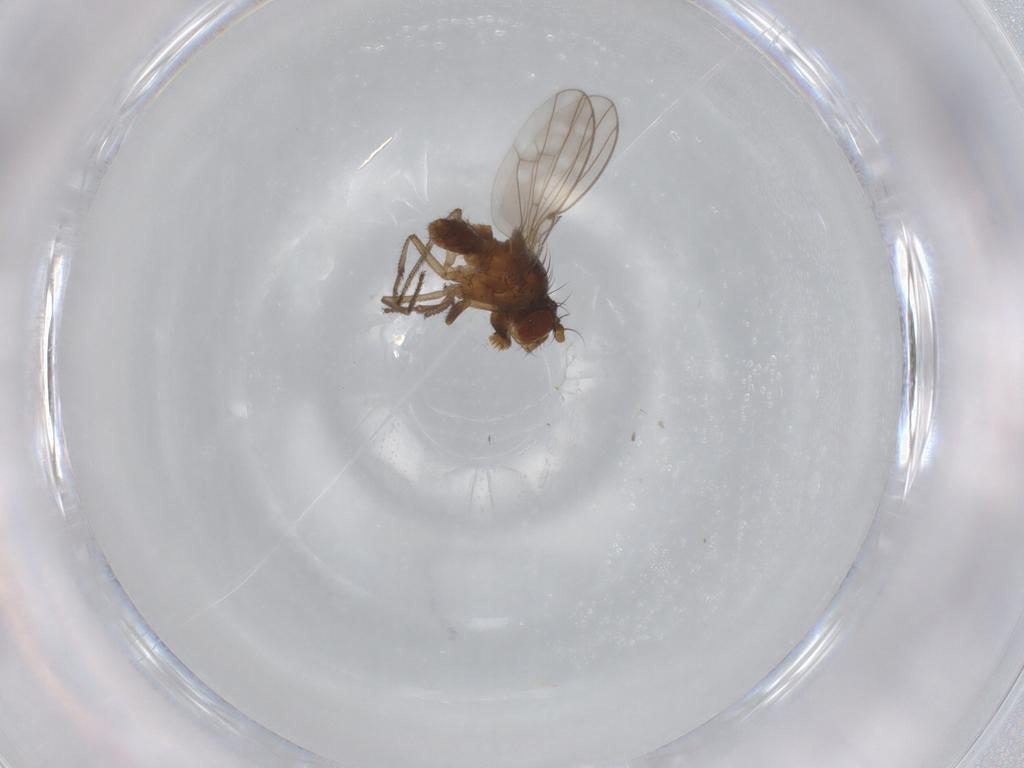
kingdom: Animalia
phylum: Arthropoda
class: Insecta
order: Diptera
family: Ephydridae
